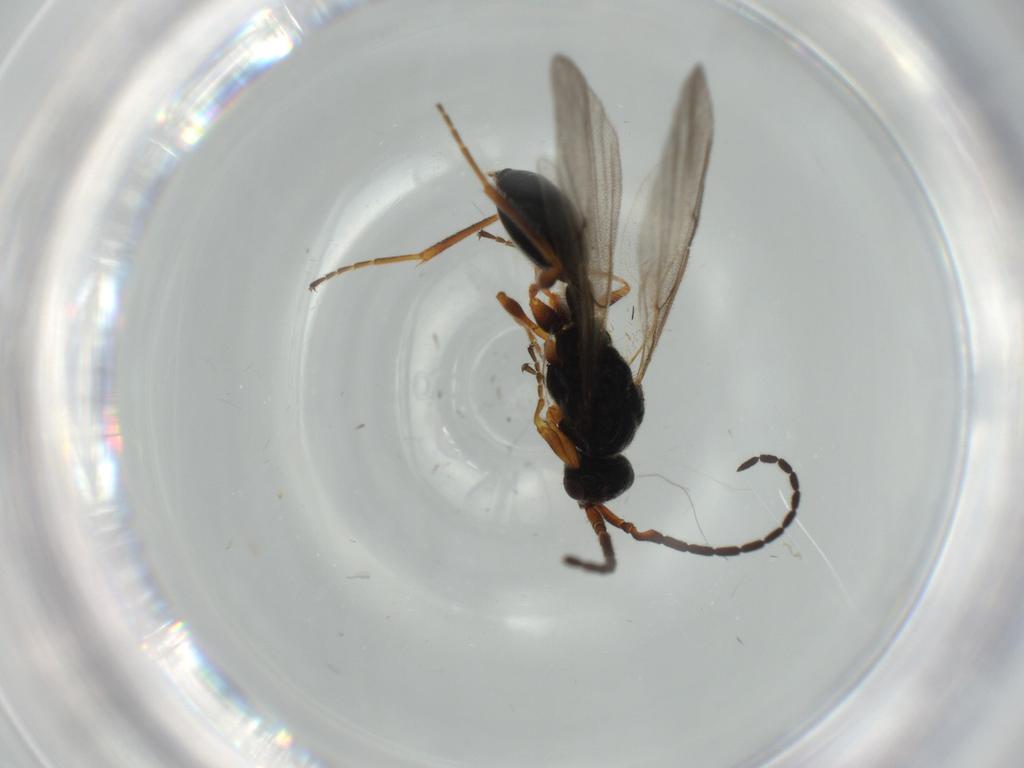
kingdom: Animalia
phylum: Arthropoda
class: Insecta
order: Hymenoptera
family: Eulophidae
